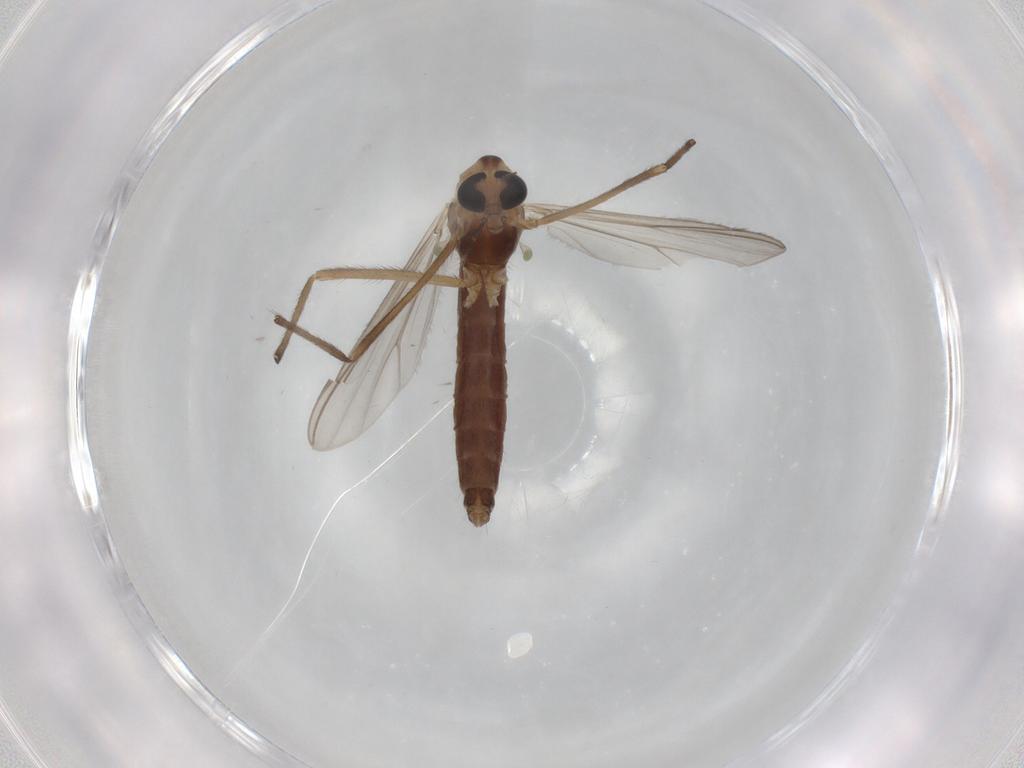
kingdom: Animalia
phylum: Arthropoda
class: Insecta
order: Diptera
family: Chironomidae
